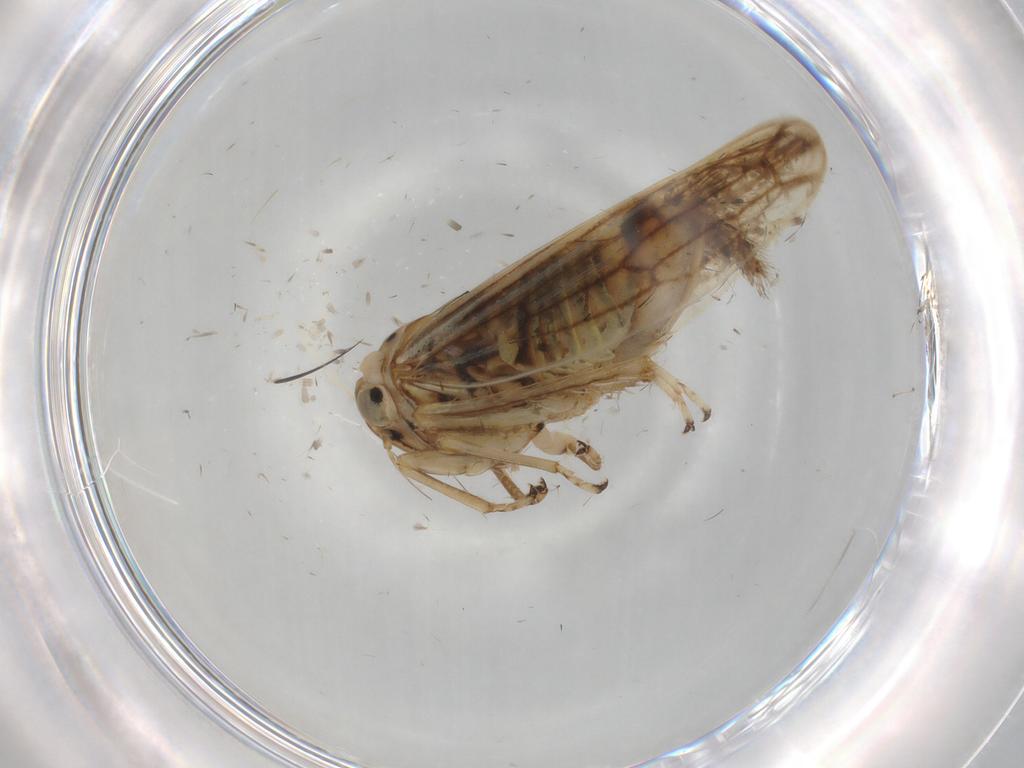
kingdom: Animalia
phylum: Arthropoda
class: Insecta
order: Hemiptera
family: Cicadellidae
